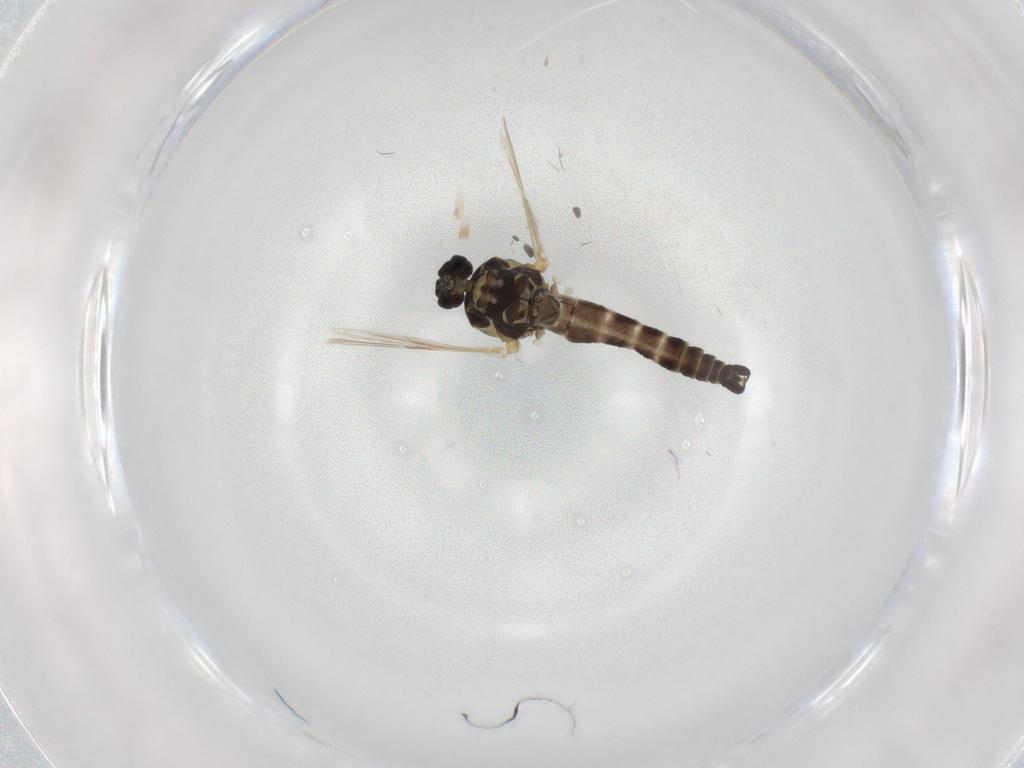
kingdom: Animalia
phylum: Arthropoda
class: Insecta
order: Diptera
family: Ceratopogonidae
